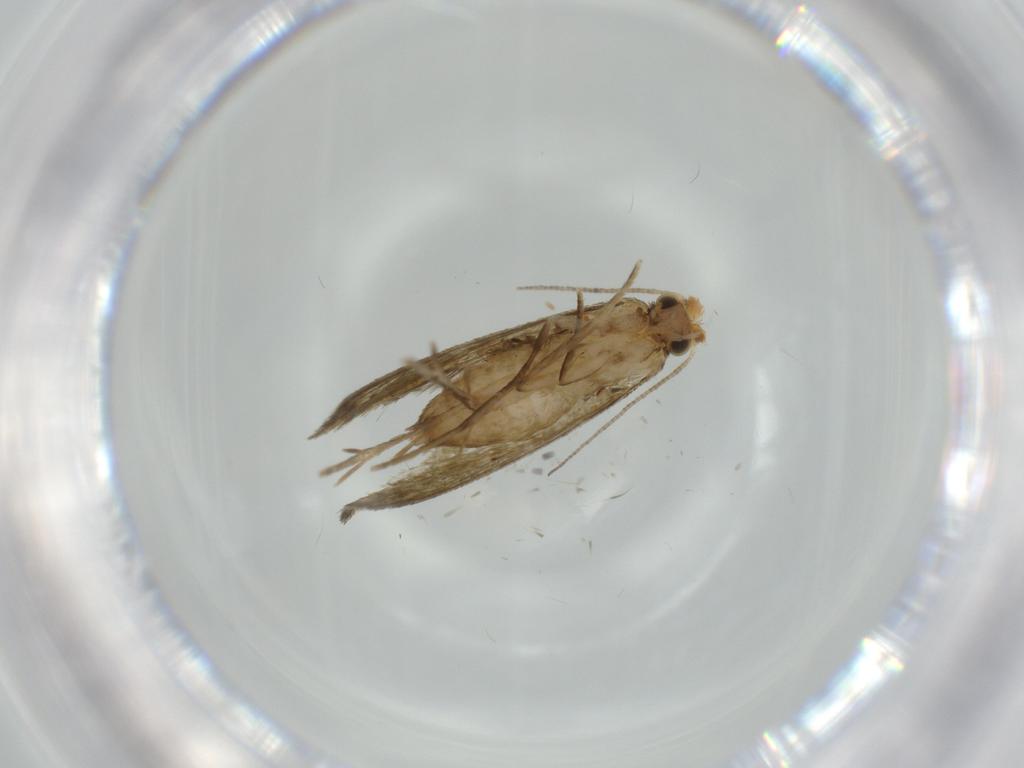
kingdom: Animalia
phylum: Arthropoda
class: Insecta
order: Lepidoptera
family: Tineidae
